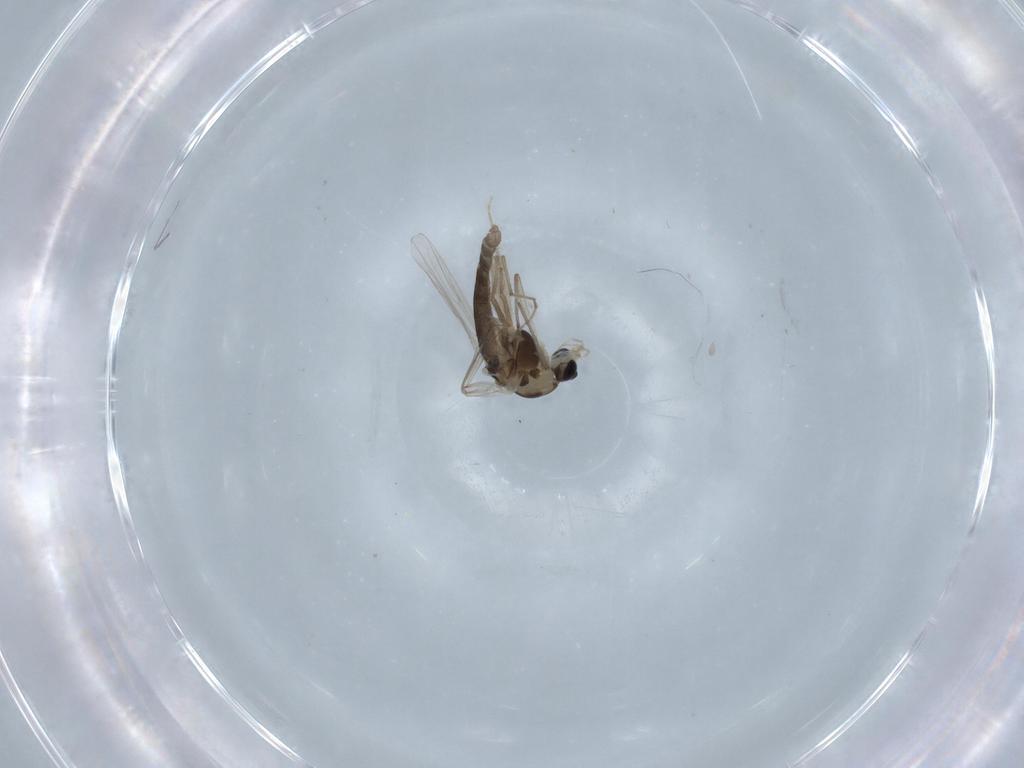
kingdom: Animalia
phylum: Arthropoda
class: Insecta
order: Diptera
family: Chironomidae
